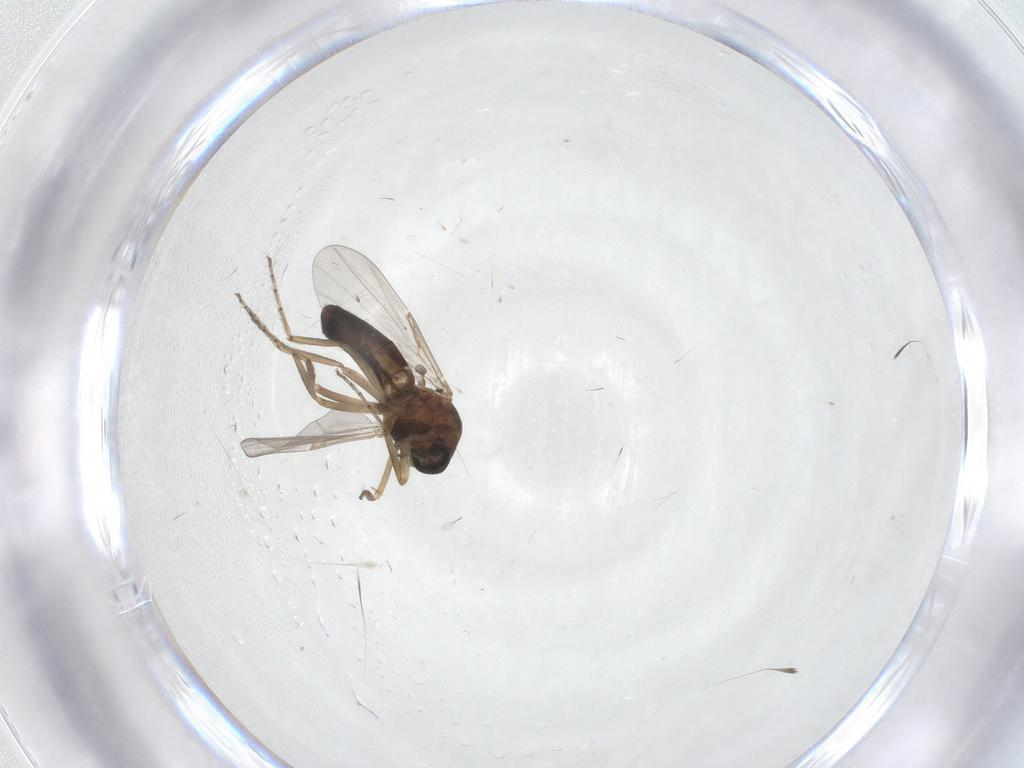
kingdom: Animalia
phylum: Arthropoda
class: Insecta
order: Diptera
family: Ceratopogonidae
